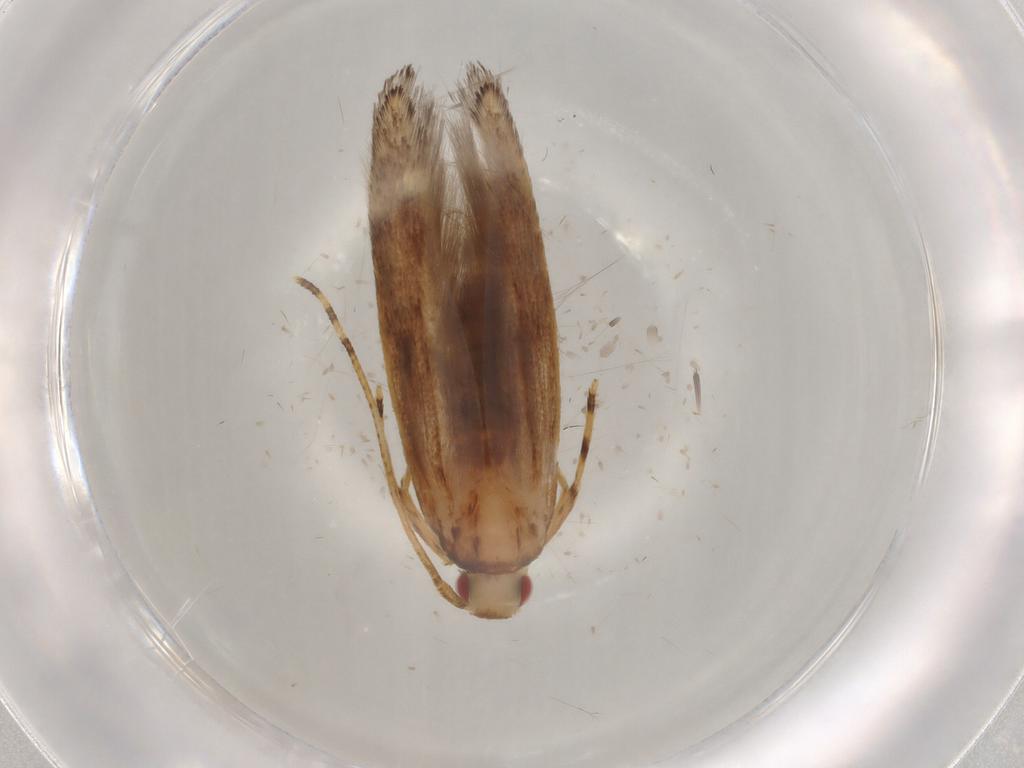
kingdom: Animalia
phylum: Arthropoda
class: Insecta
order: Lepidoptera
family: Cosmopterigidae
